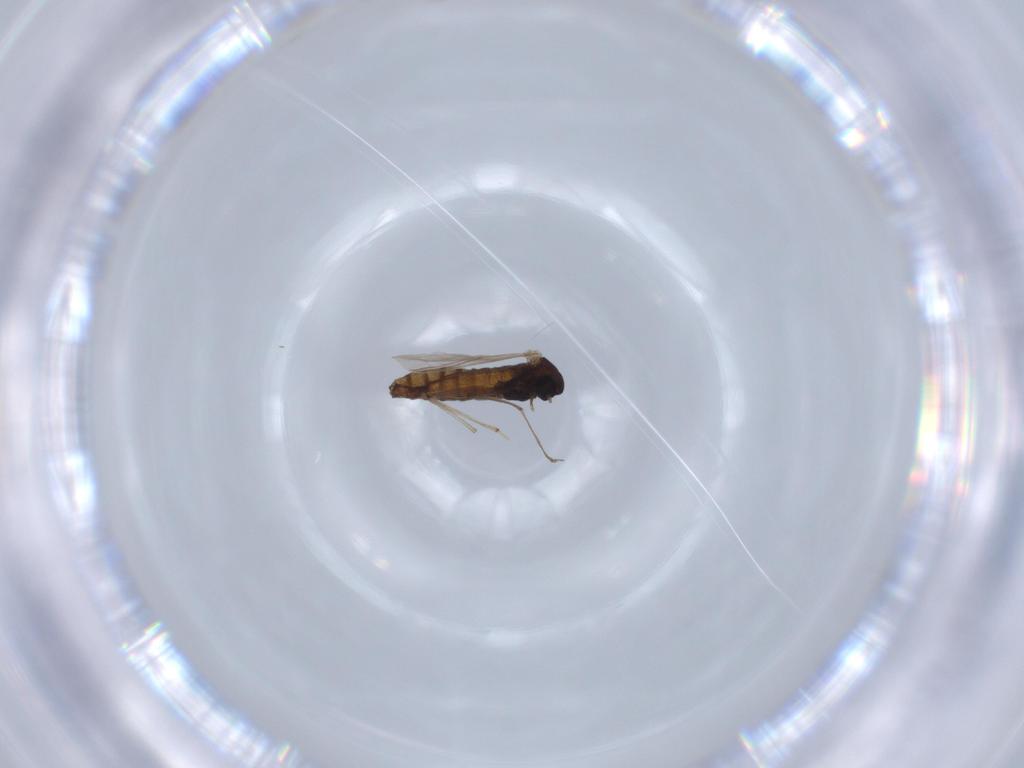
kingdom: Animalia
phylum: Arthropoda
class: Insecta
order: Diptera
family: Chironomidae
